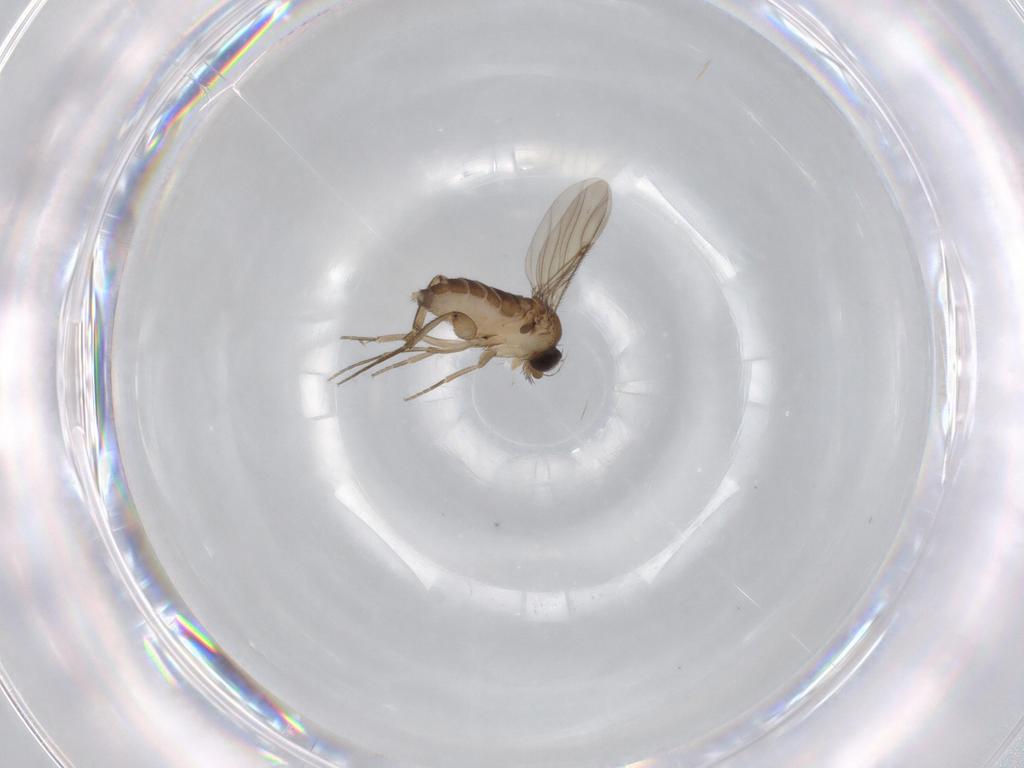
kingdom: Animalia
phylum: Arthropoda
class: Insecta
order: Diptera
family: Phoridae
